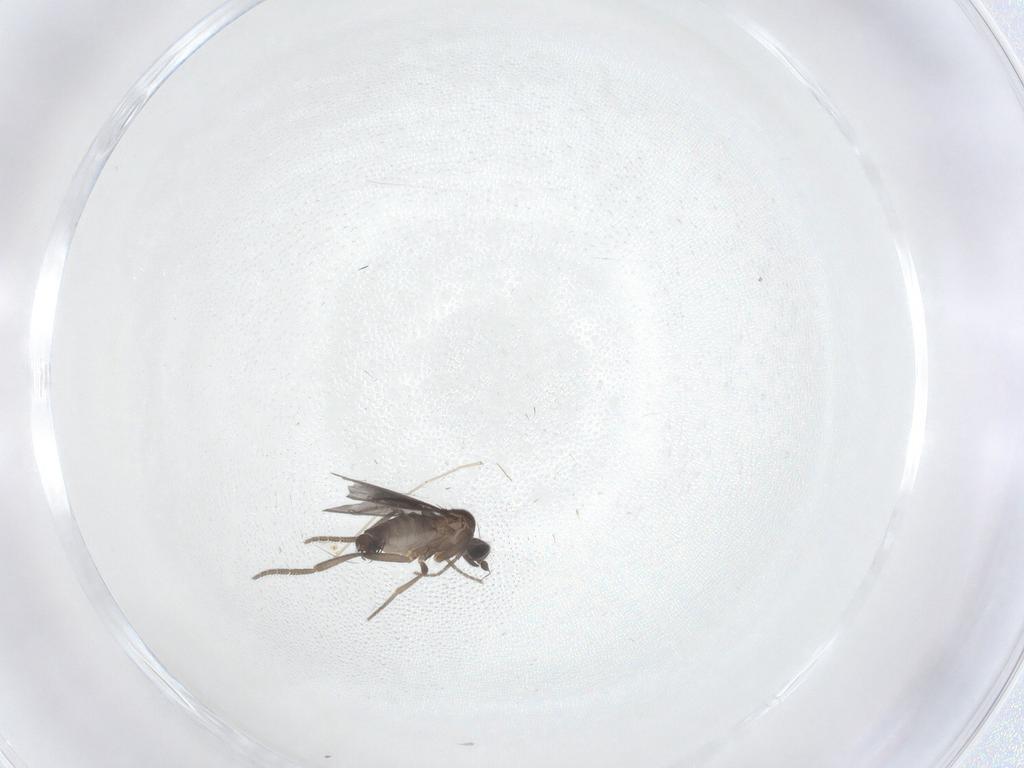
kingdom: Animalia
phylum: Arthropoda
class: Insecta
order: Diptera
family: Phoridae
